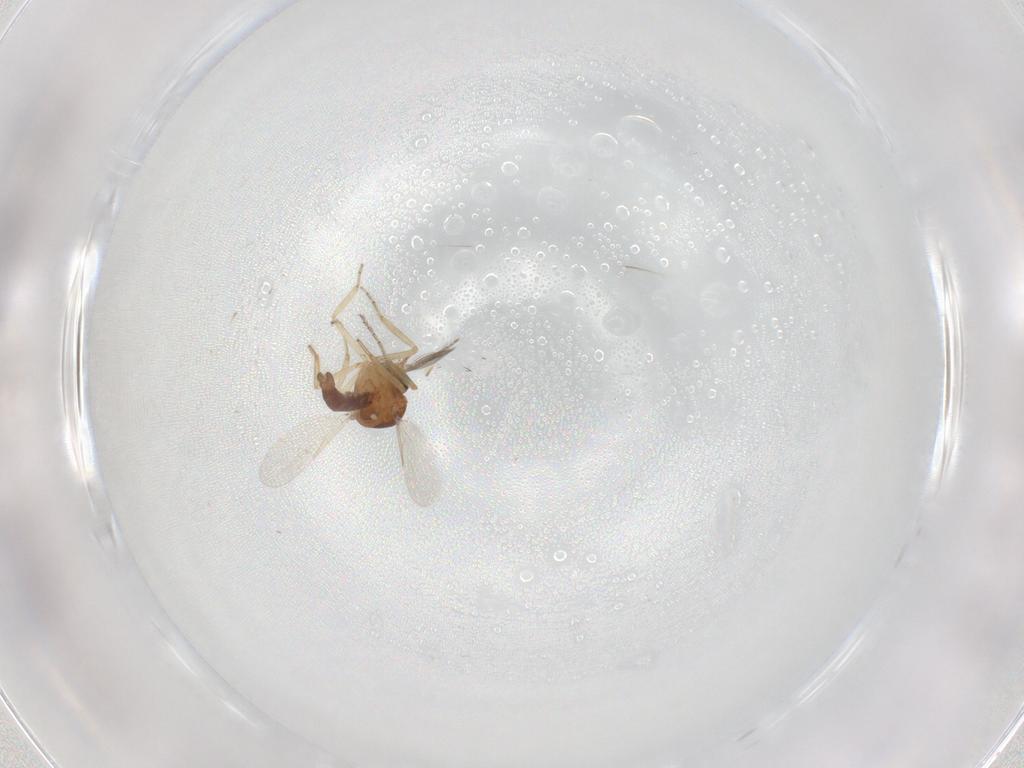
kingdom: Animalia
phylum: Arthropoda
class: Insecta
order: Diptera
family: Ceratopogonidae
